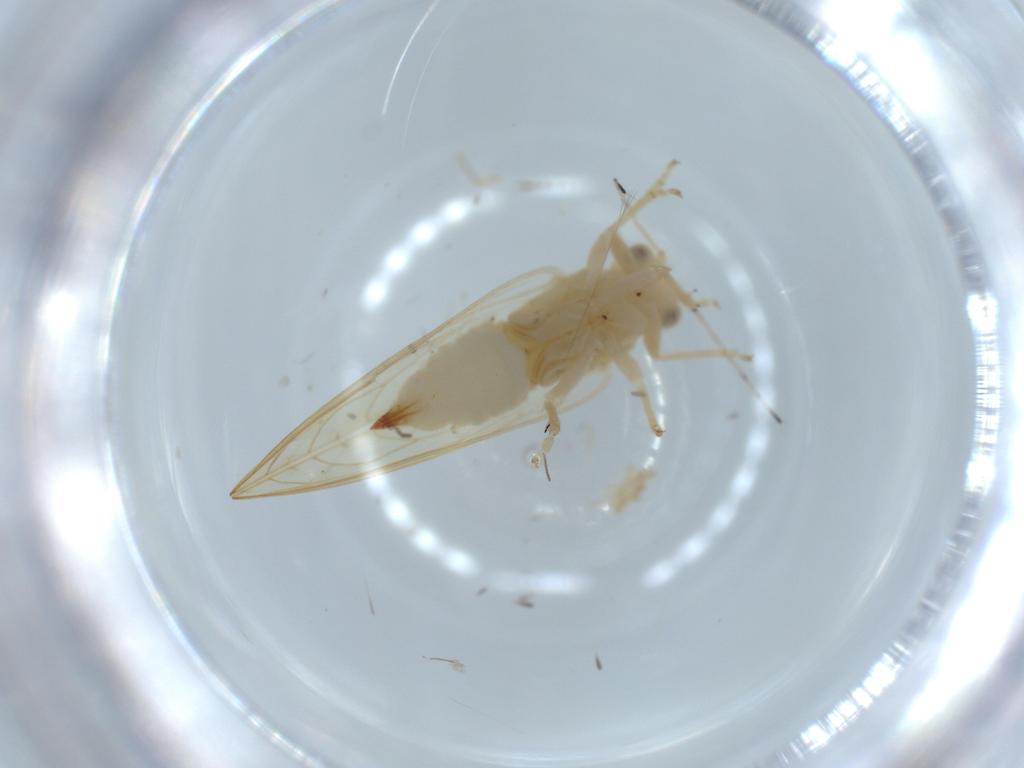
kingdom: Animalia
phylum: Arthropoda
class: Insecta
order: Hemiptera
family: Triozidae
